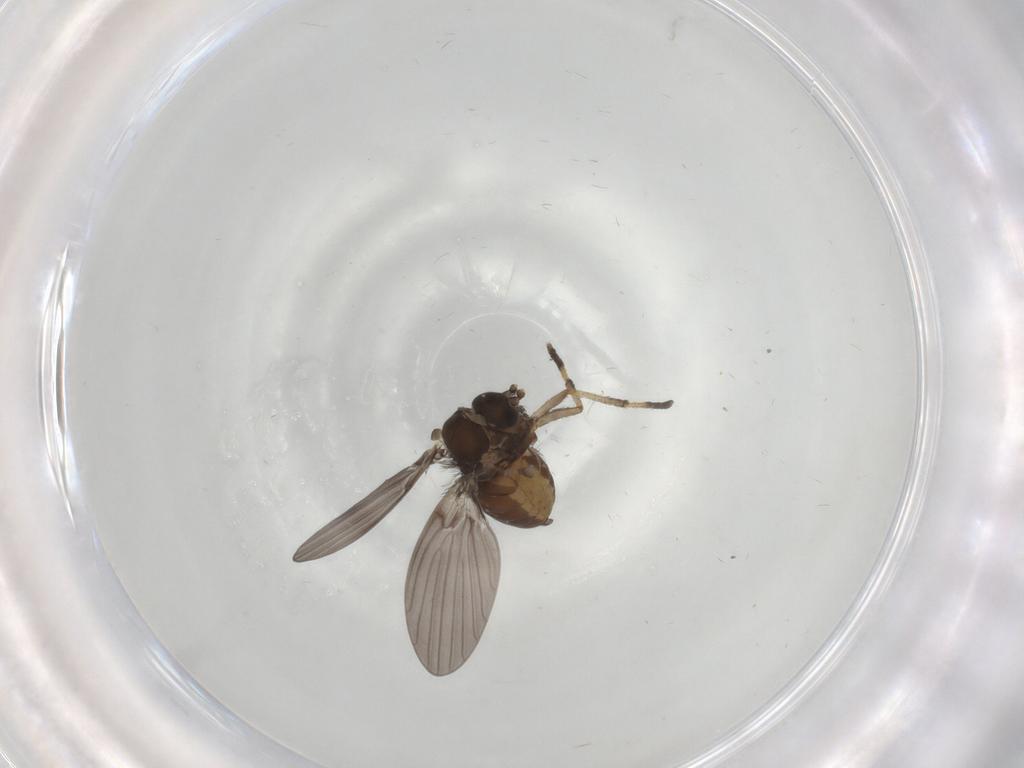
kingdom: Animalia
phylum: Arthropoda
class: Insecta
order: Diptera
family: Psychodidae
